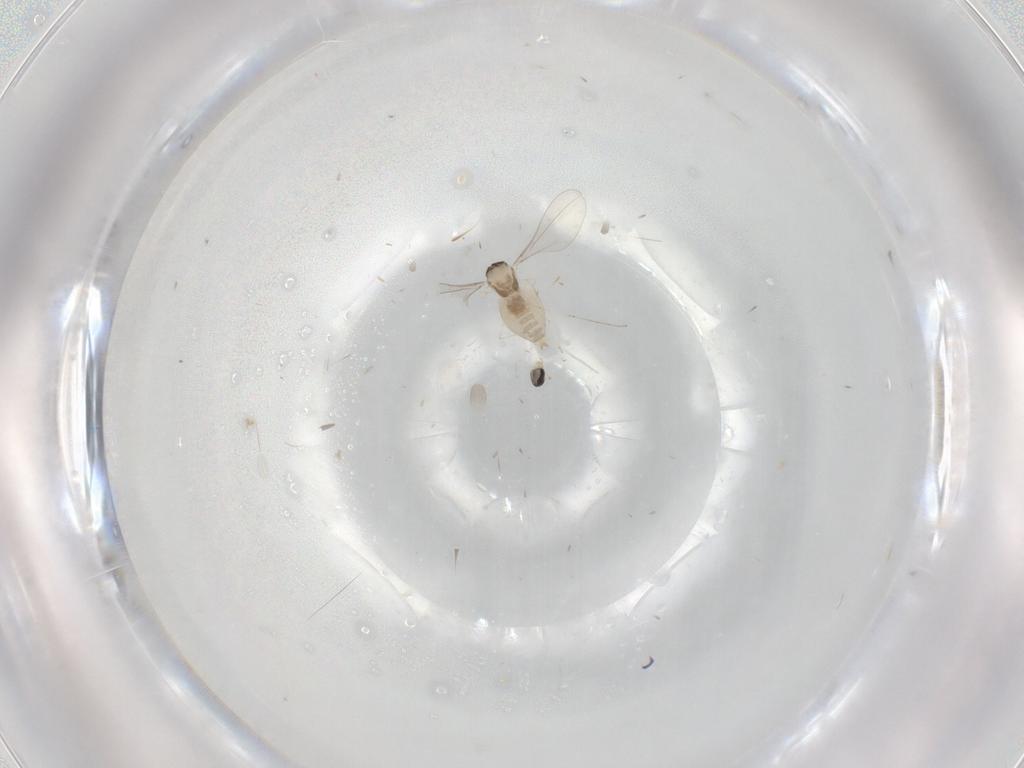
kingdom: Animalia
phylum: Arthropoda
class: Insecta
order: Diptera
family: Cecidomyiidae
